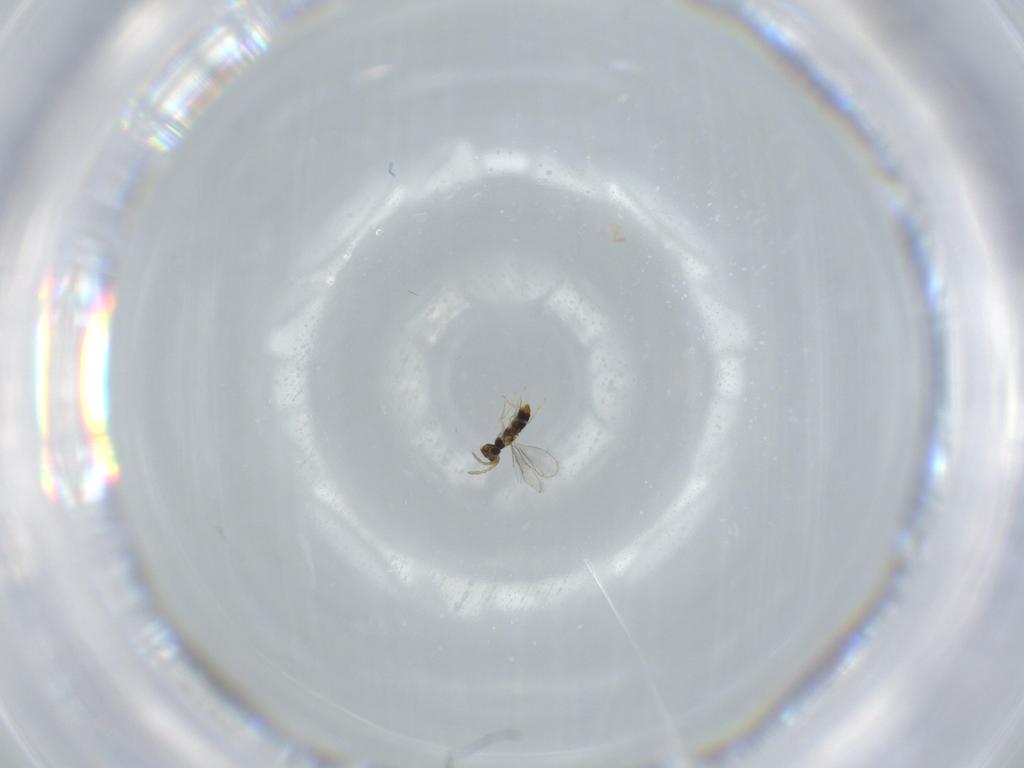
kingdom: Animalia
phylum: Arthropoda
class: Insecta
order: Hymenoptera
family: Aphelinidae
